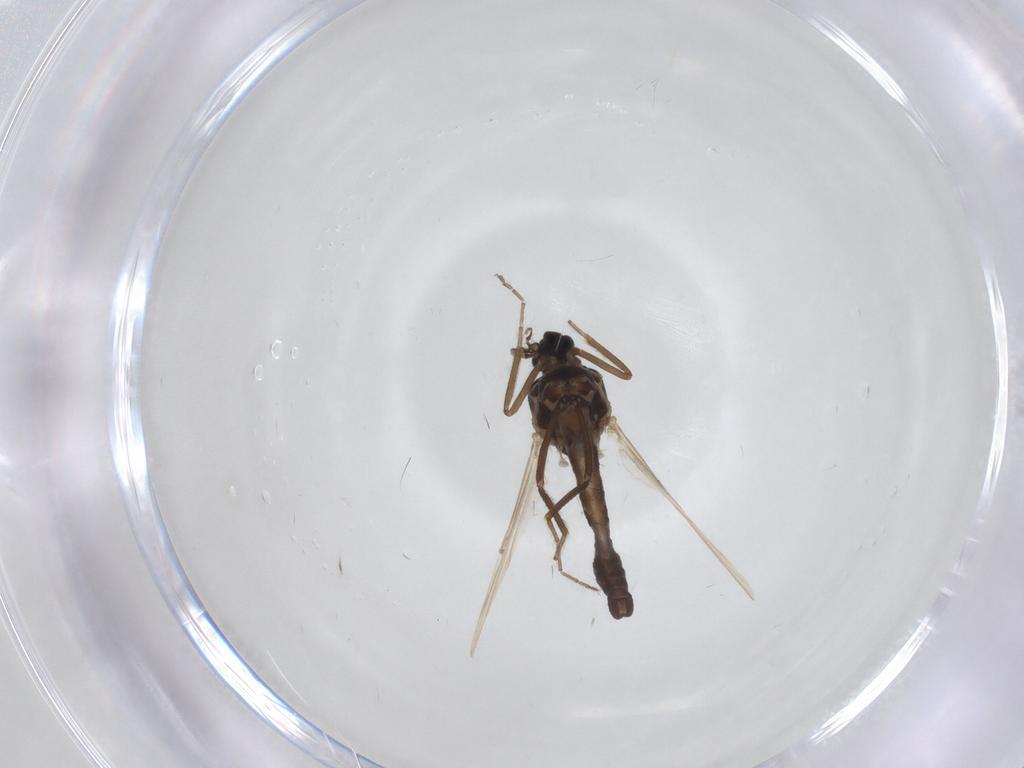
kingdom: Animalia
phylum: Arthropoda
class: Insecta
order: Diptera
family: Ceratopogonidae
